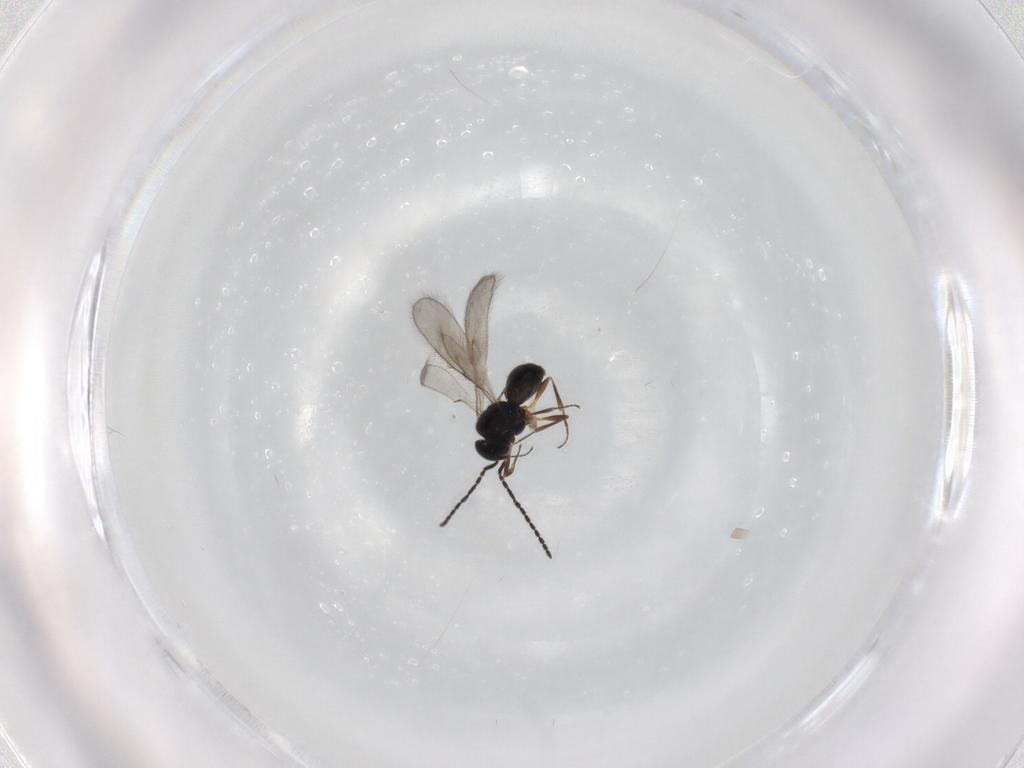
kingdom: Animalia
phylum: Arthropoda
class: Insecta
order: Hymenoptera
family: Scelionidae
